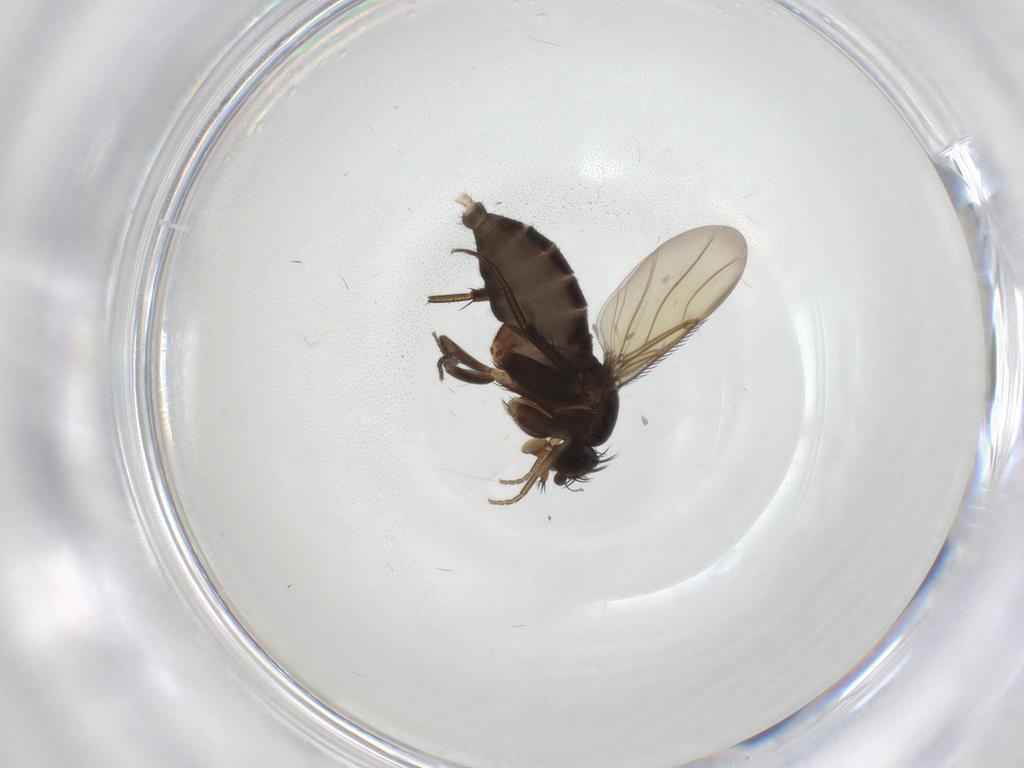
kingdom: Animalia
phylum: Arthropoda
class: Insecta
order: Diptera
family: Phoridae
